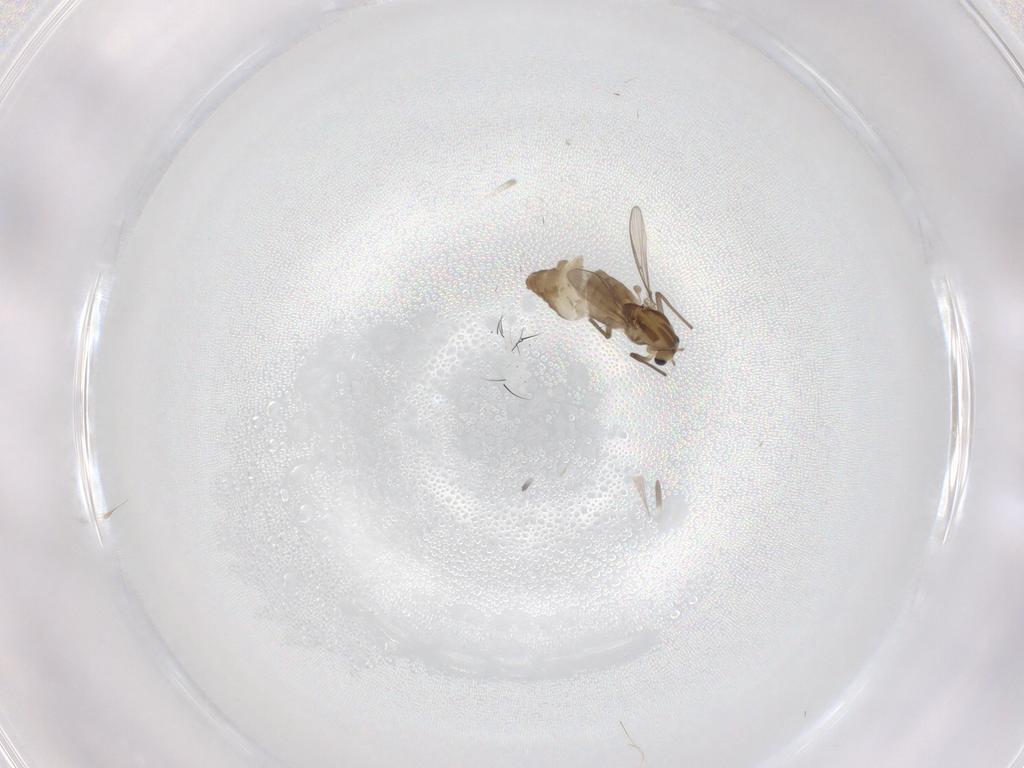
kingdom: Animalia
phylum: Arthropoda
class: Insecta
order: Diptera
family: Chironomidae
